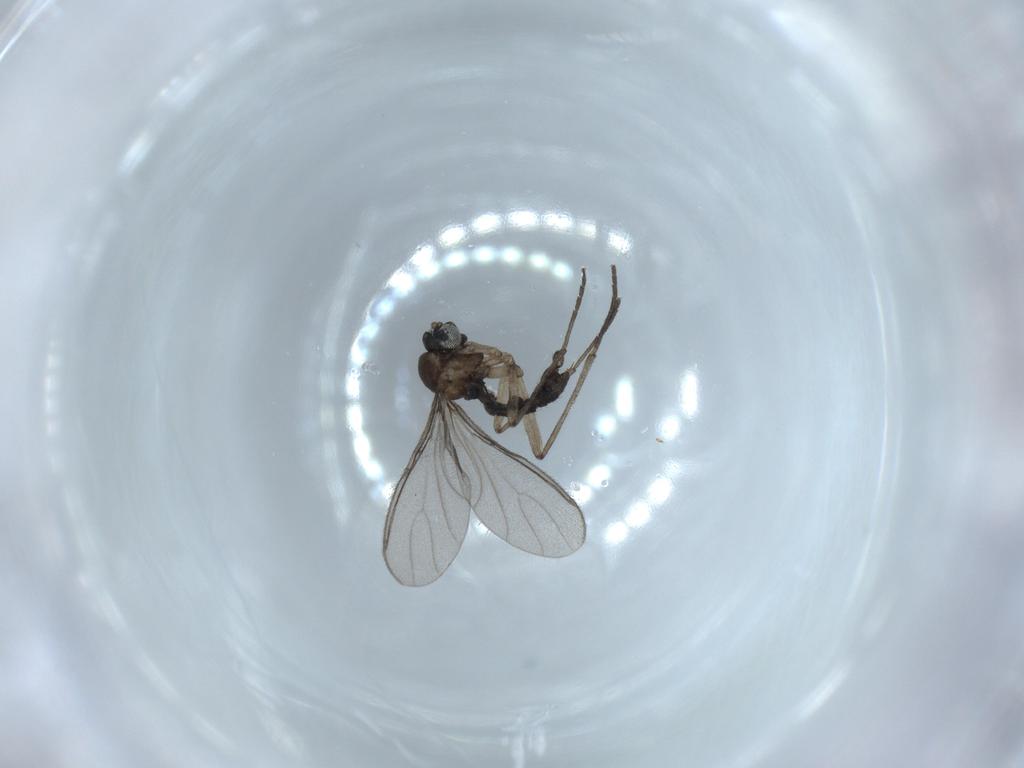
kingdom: Animalia
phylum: Arthropoda
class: Insecta
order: Diptera
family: Sciaridae
